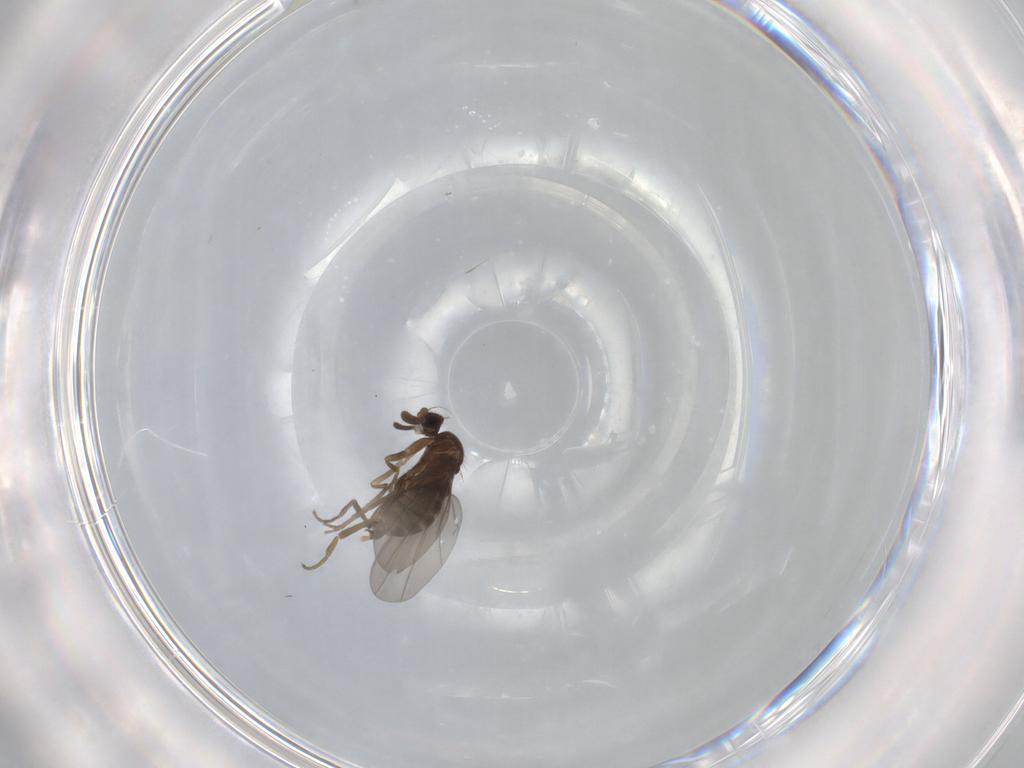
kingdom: Animalia
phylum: Arthropoda
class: Insecta
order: Diptera
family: Phoridae
